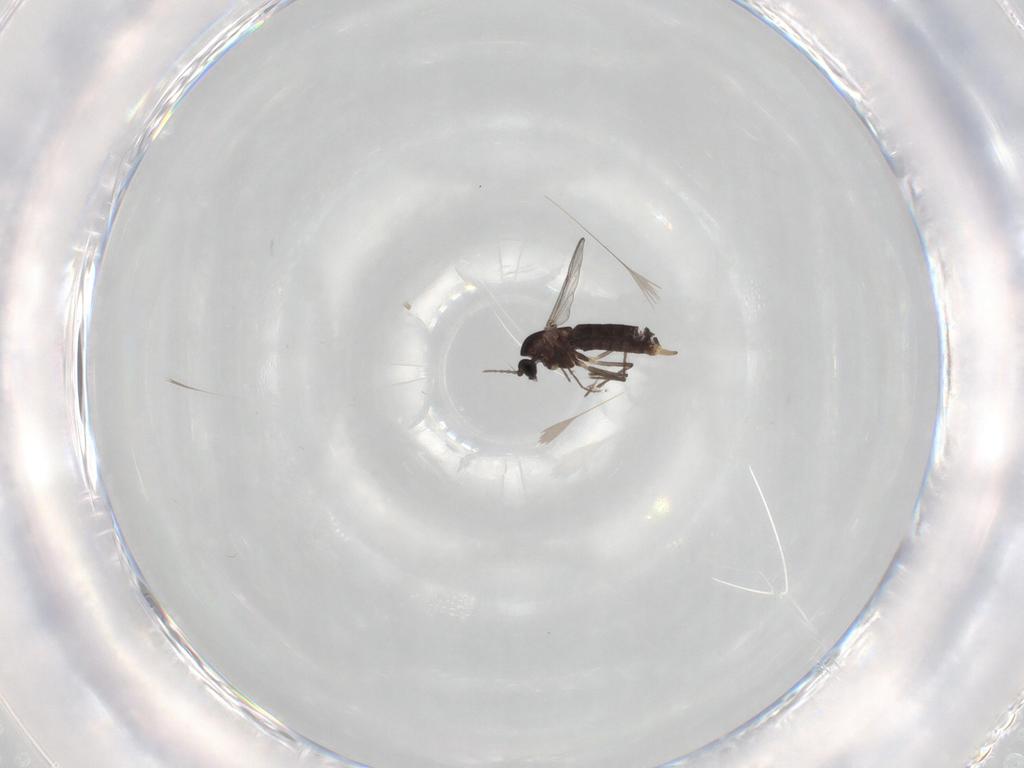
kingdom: Animalia
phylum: Arthropoda
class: Insecta
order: Diptera
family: Chironomidae
